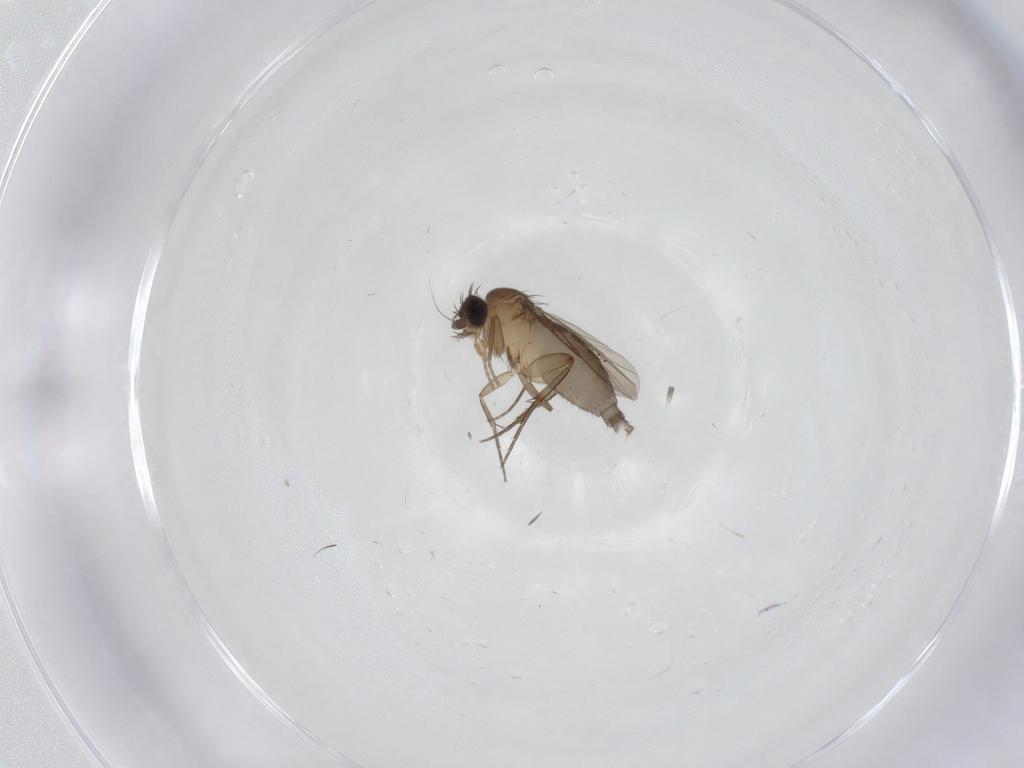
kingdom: Animalia
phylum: Arthropoda
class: Insecta
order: Diptera
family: Phoridae
